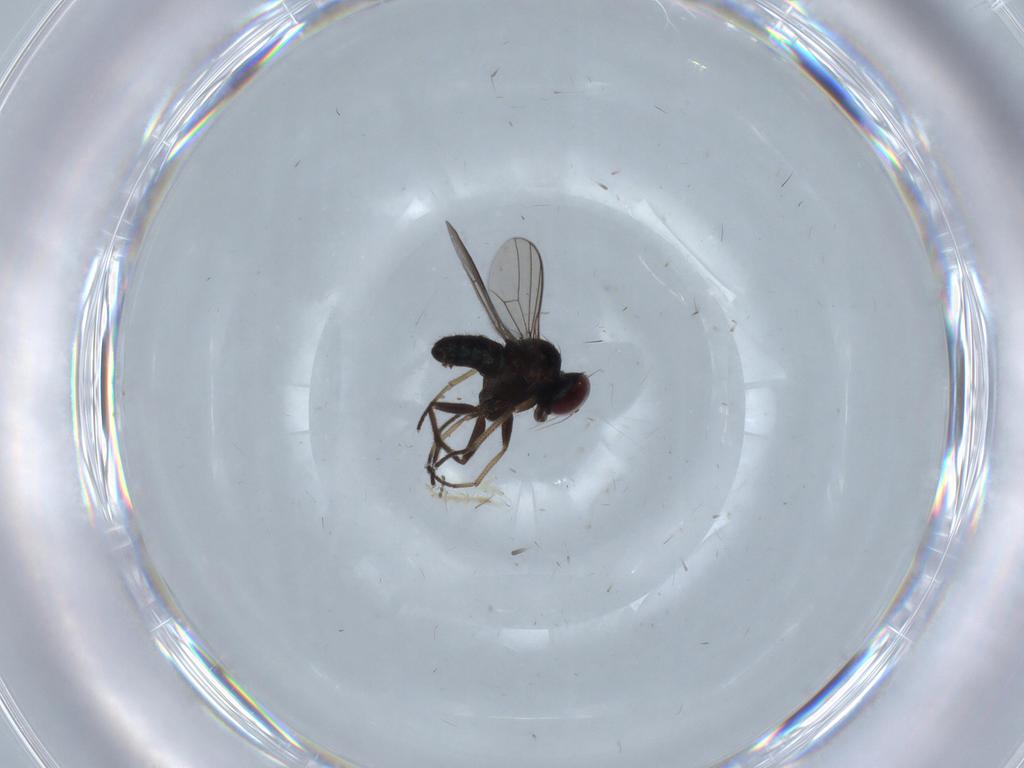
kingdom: Animalia
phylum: Arthropoda
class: Insecta
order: Diptera
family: Dolichopodidae
